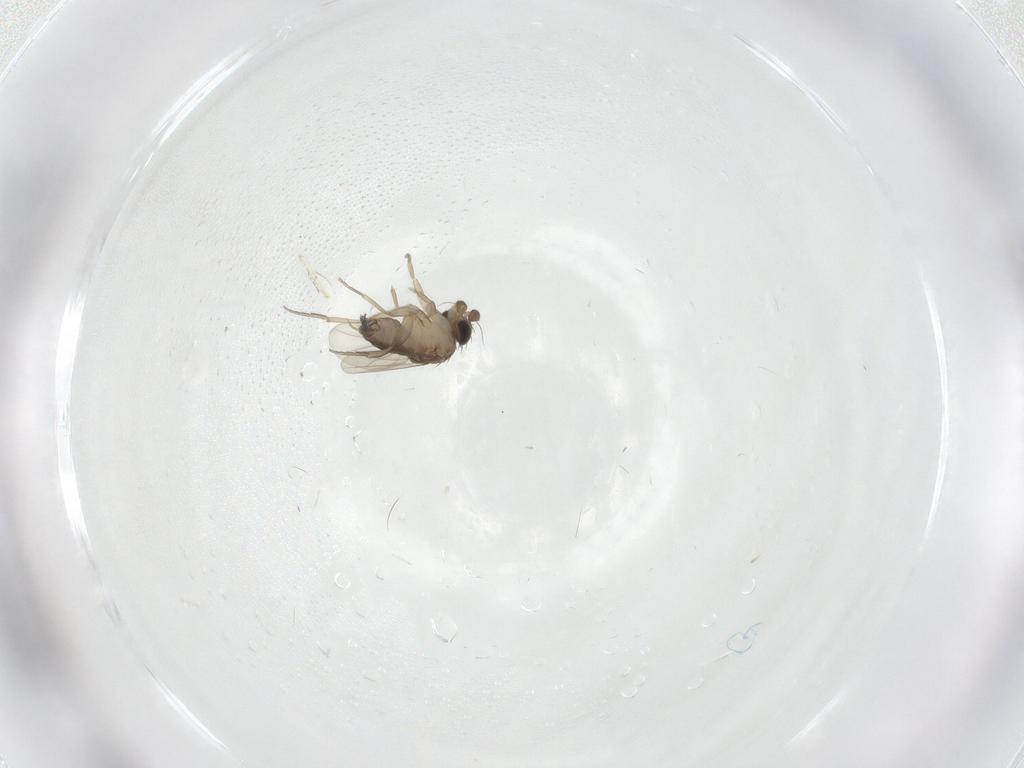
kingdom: Animalia
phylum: Arthropoda
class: Insecta
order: Diptera
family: Phoridae
